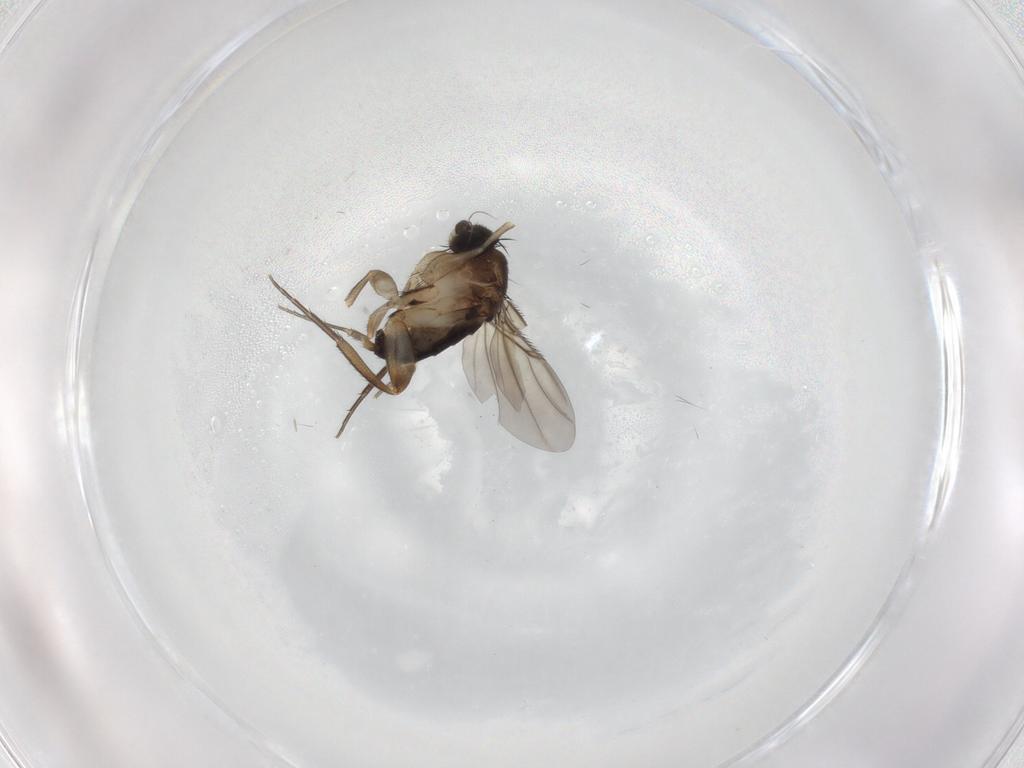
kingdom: Animalia
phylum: Arthropoda
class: Insecta
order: Diptera
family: Phoridae
